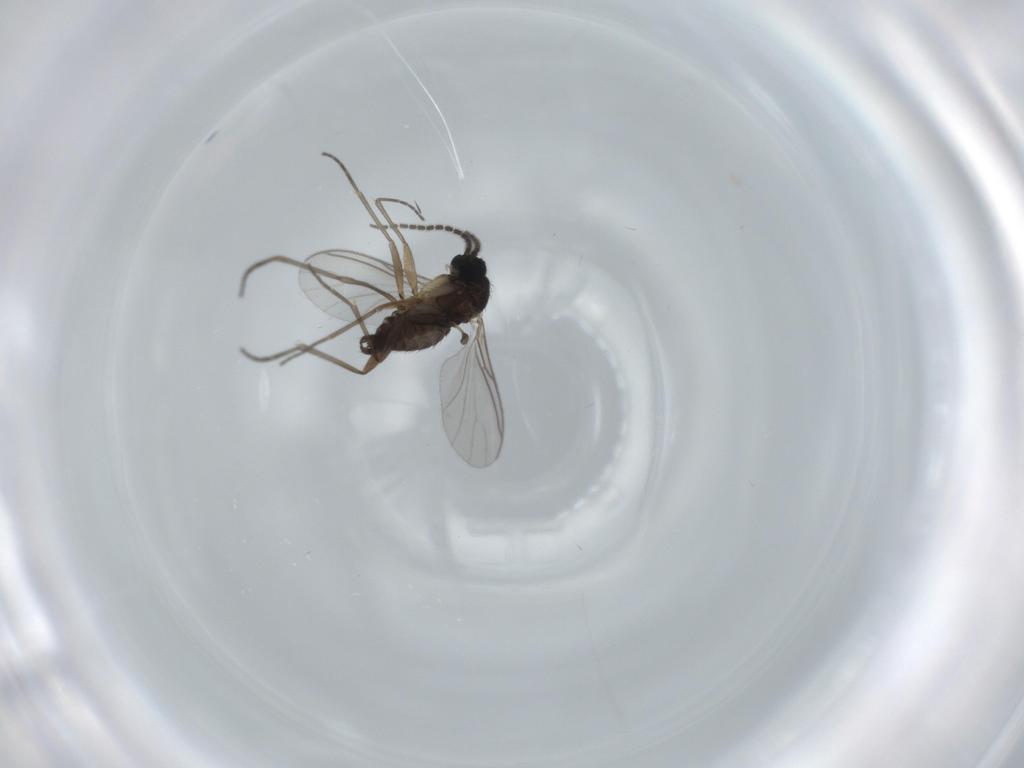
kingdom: Animalia
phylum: Arthropoda
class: Insecta
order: Diptera
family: Sciaridae
